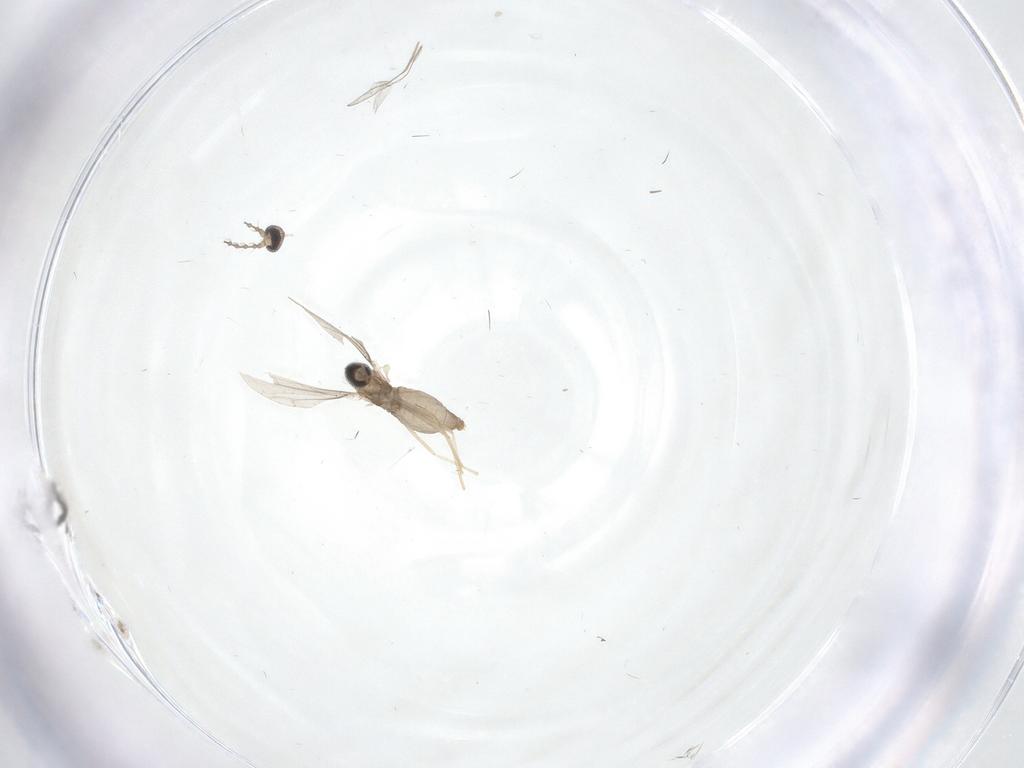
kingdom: Animalia
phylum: Arthropoda
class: Insecta
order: Diptera
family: Cecidomyiidae
